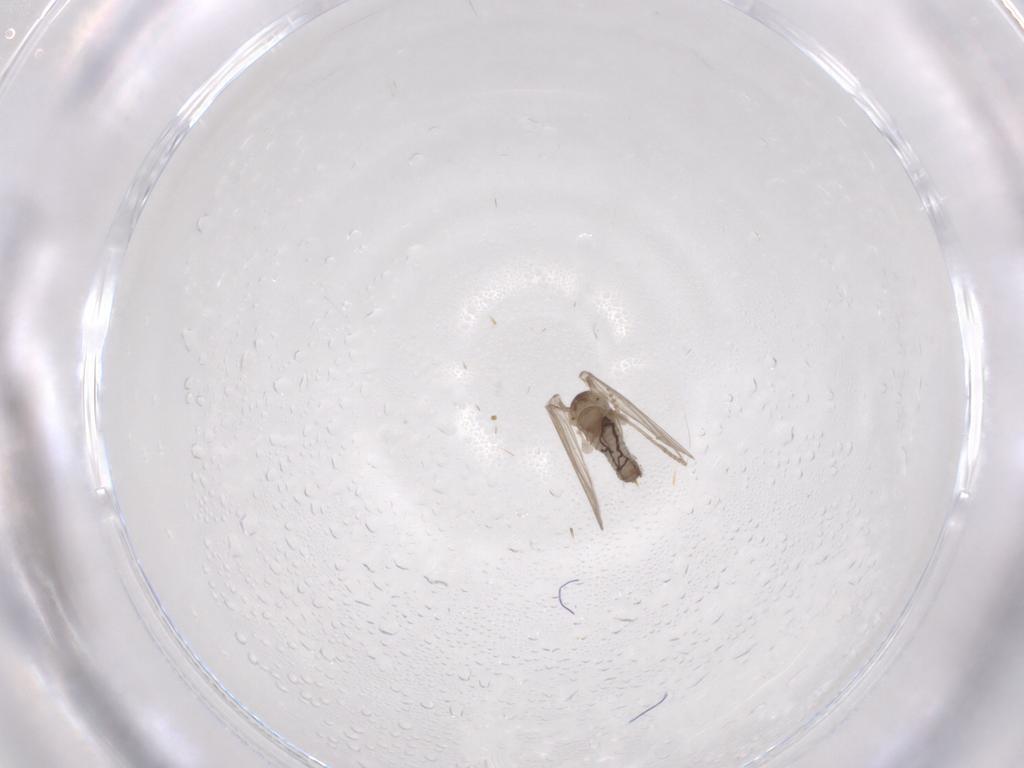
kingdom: Animalia
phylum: Arthropoda
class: Insecta
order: Diptera
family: Psychodidae
